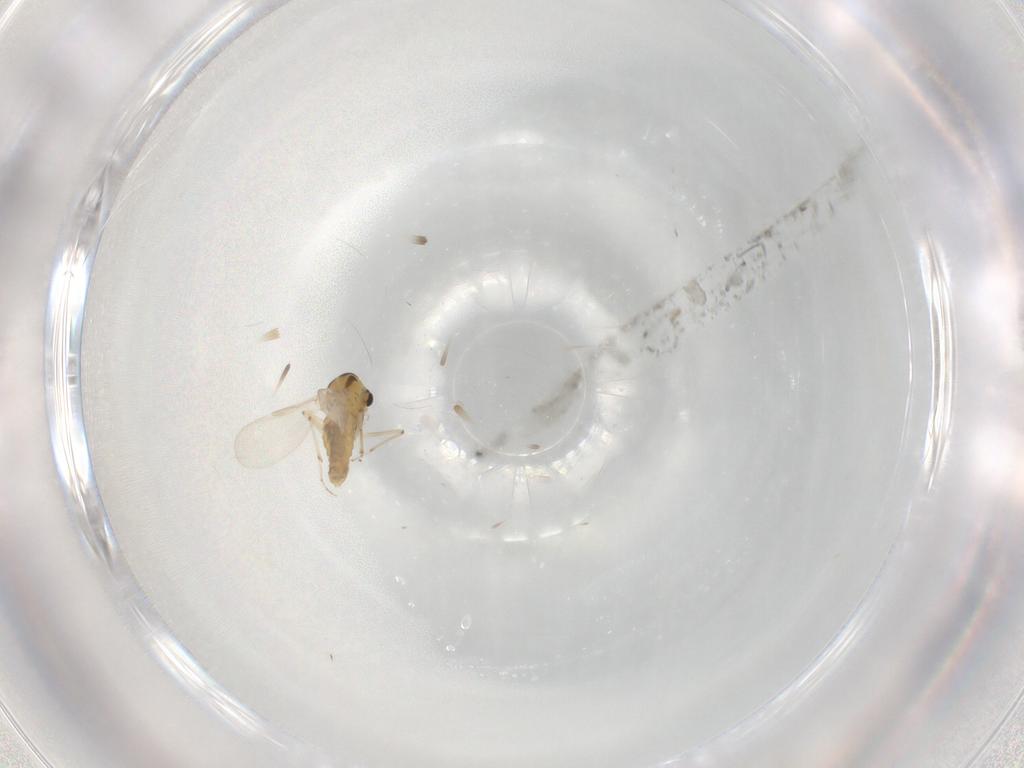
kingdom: Animalia
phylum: Arthropoda
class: Insecta
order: Diptera
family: Chironomidae
